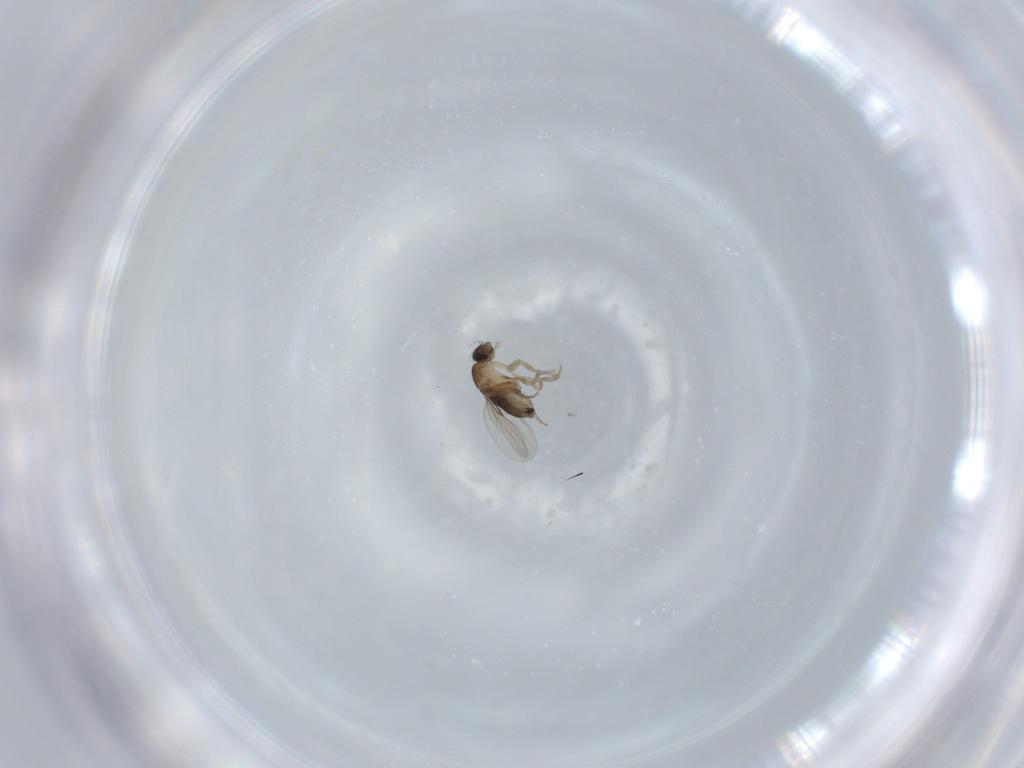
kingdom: Animalia
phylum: Arthropoda
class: Insecta
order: Diptera
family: Phoridae
